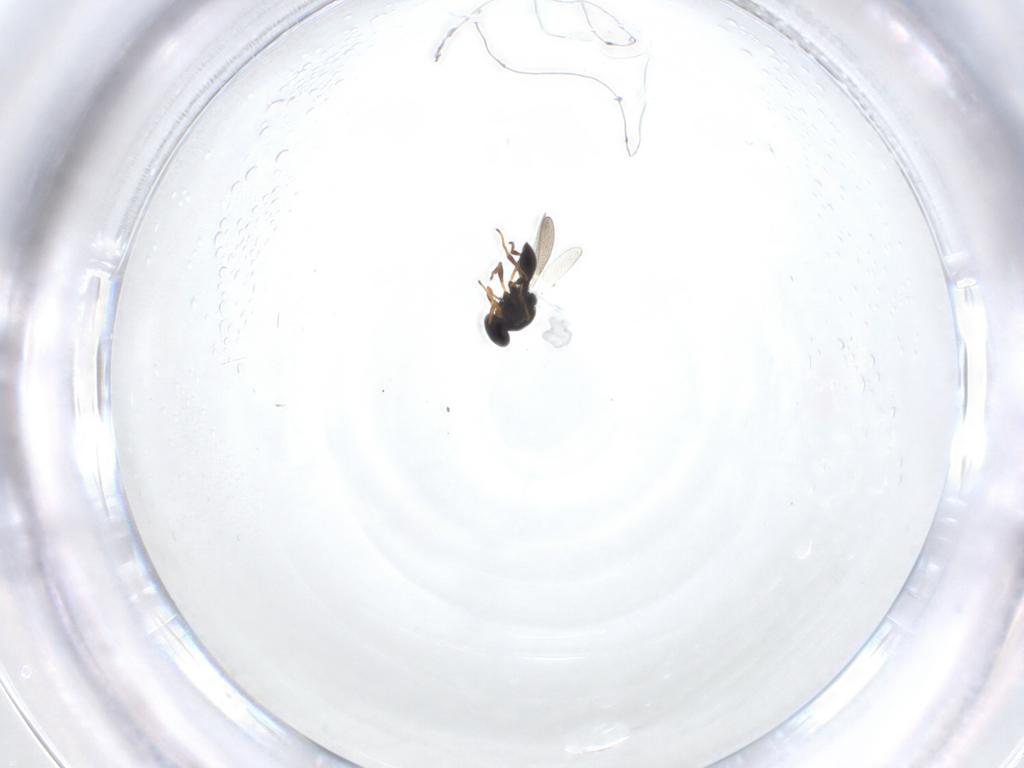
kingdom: Animalia
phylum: Arthropoda
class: Insecta
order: Hymenoptera
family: Platygastridae
